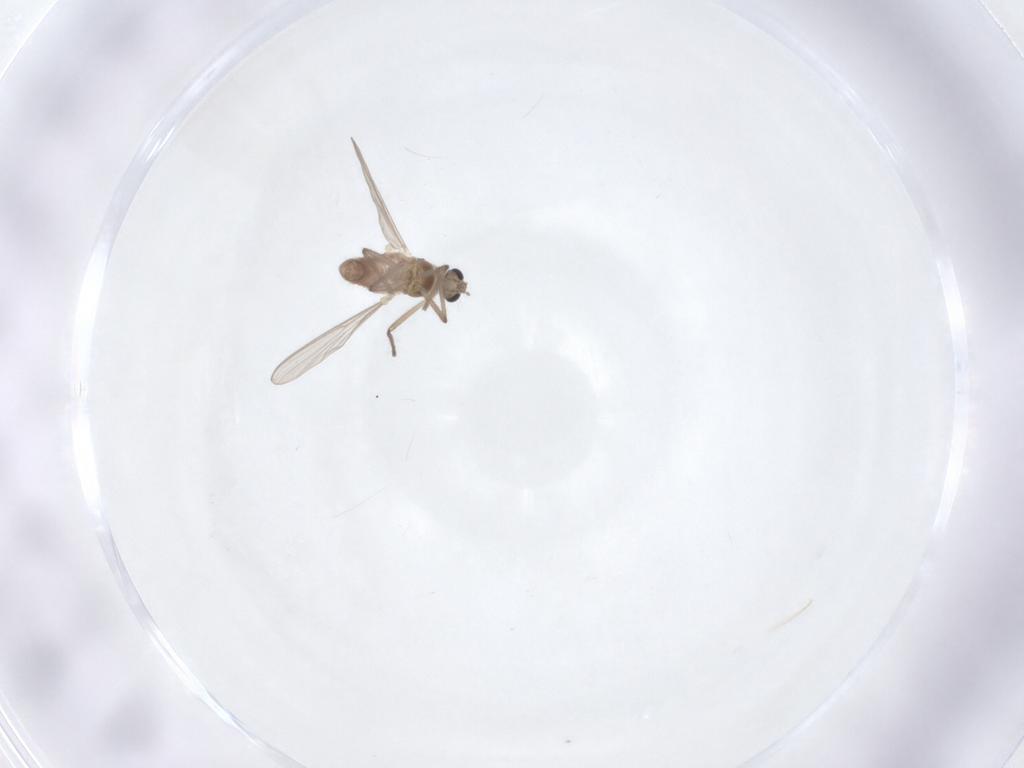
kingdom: Animalia
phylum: Arthropoda
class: Insecta
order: Diptera
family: Chironomidae
